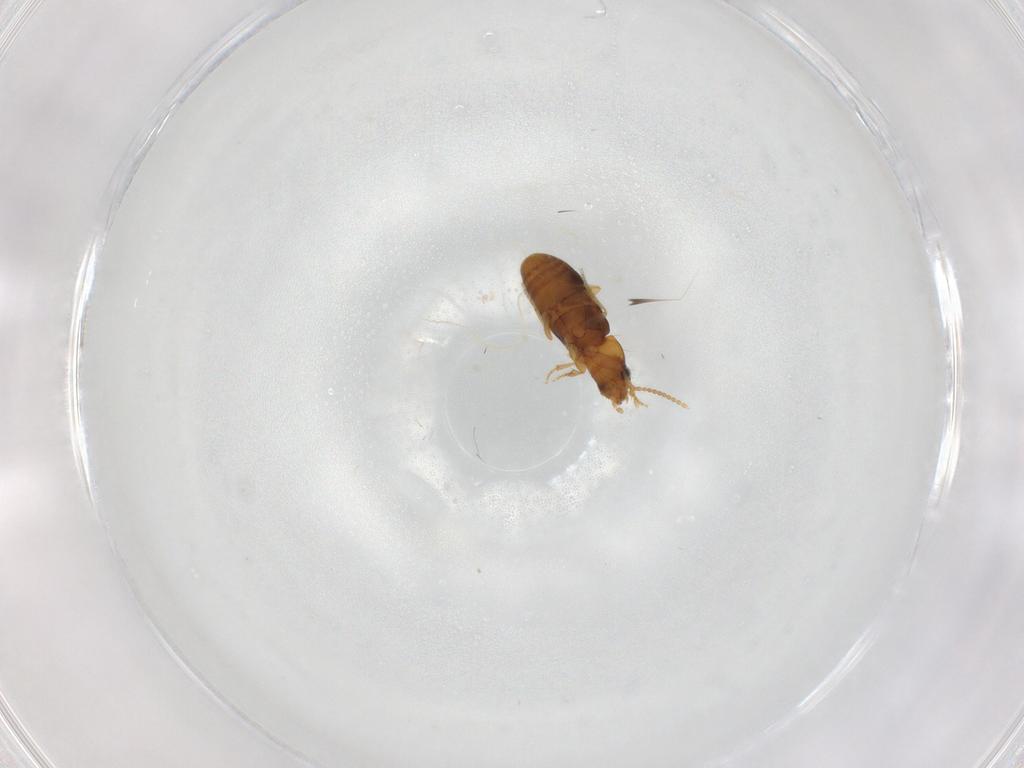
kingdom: Animalia
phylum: Arthropoda
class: Insecta
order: Coleoptera
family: Carabidae
